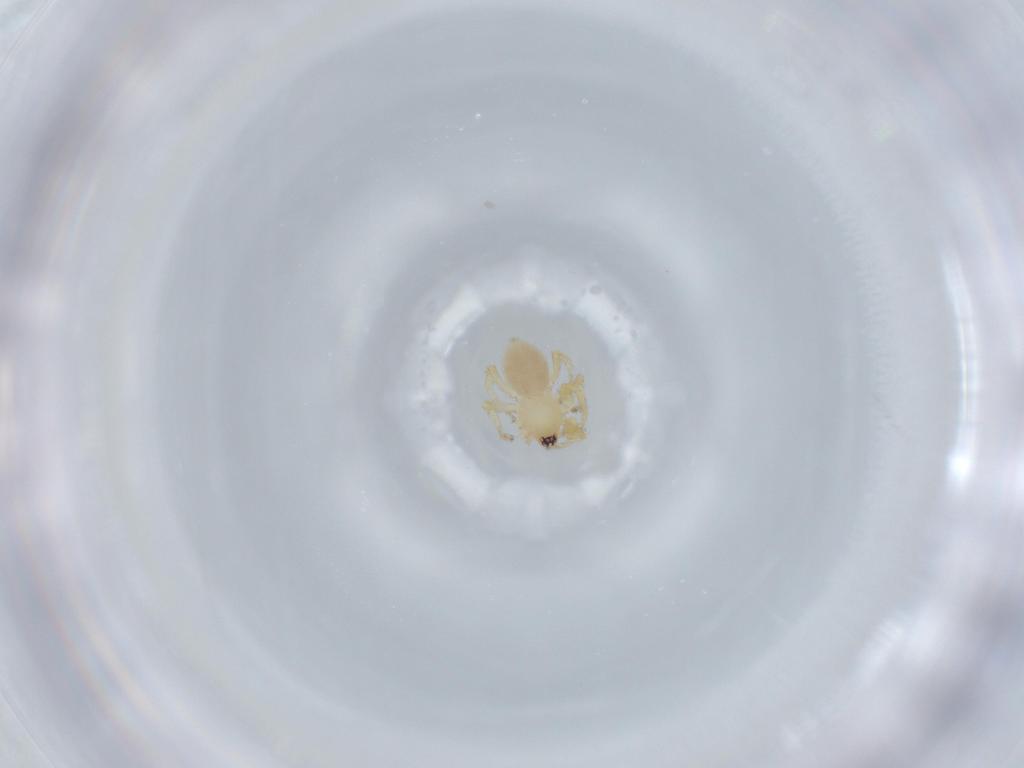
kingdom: Animalia
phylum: Arthropoda
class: Arachnida
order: Araneae
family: Oonopidae
